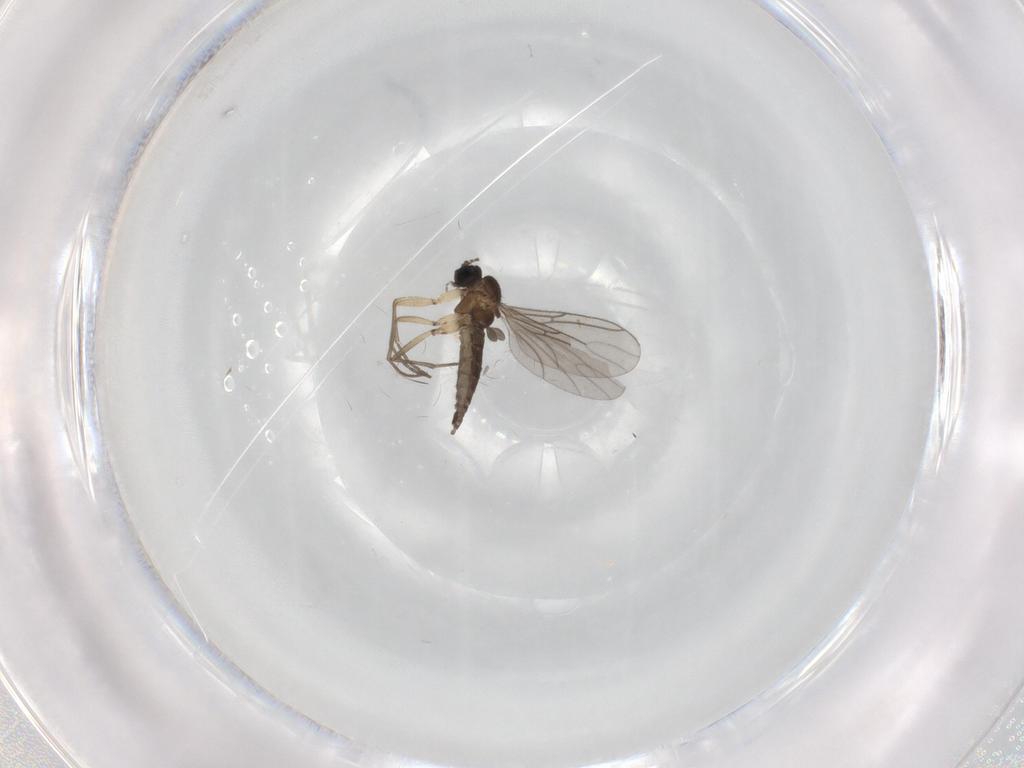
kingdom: Animalia
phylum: Arthropoda
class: Insecta
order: Diptera
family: Sciaridae
